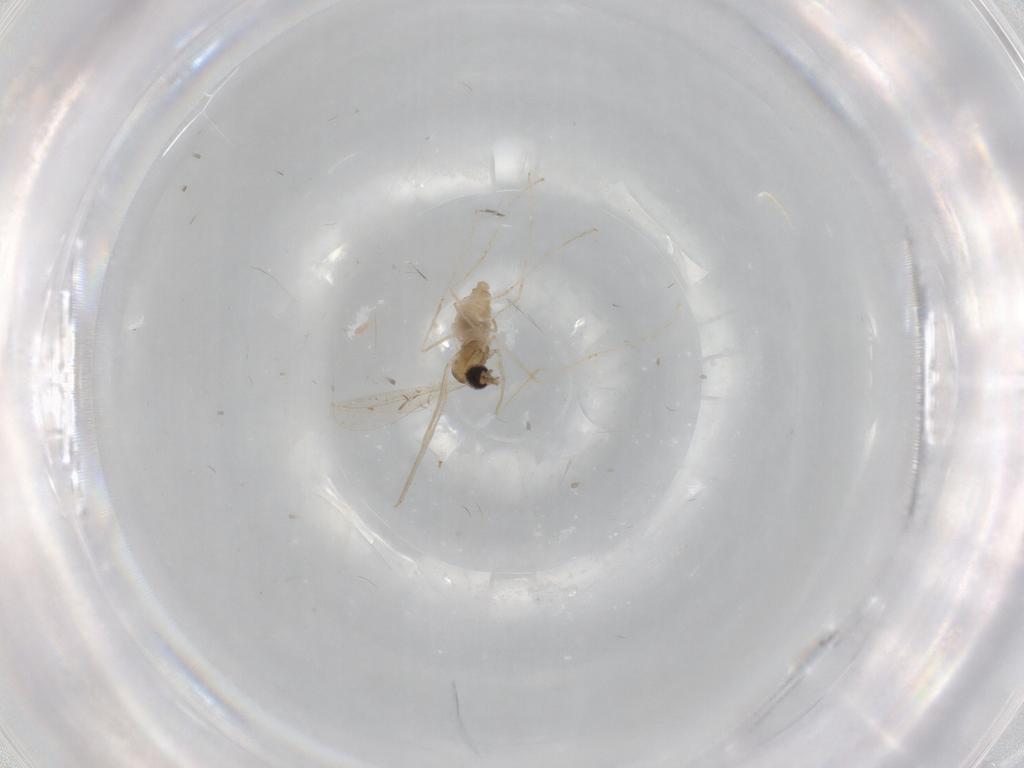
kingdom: Animalia
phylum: Arthropoda
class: Insecta
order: Diptera
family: Cecidomyiidae
